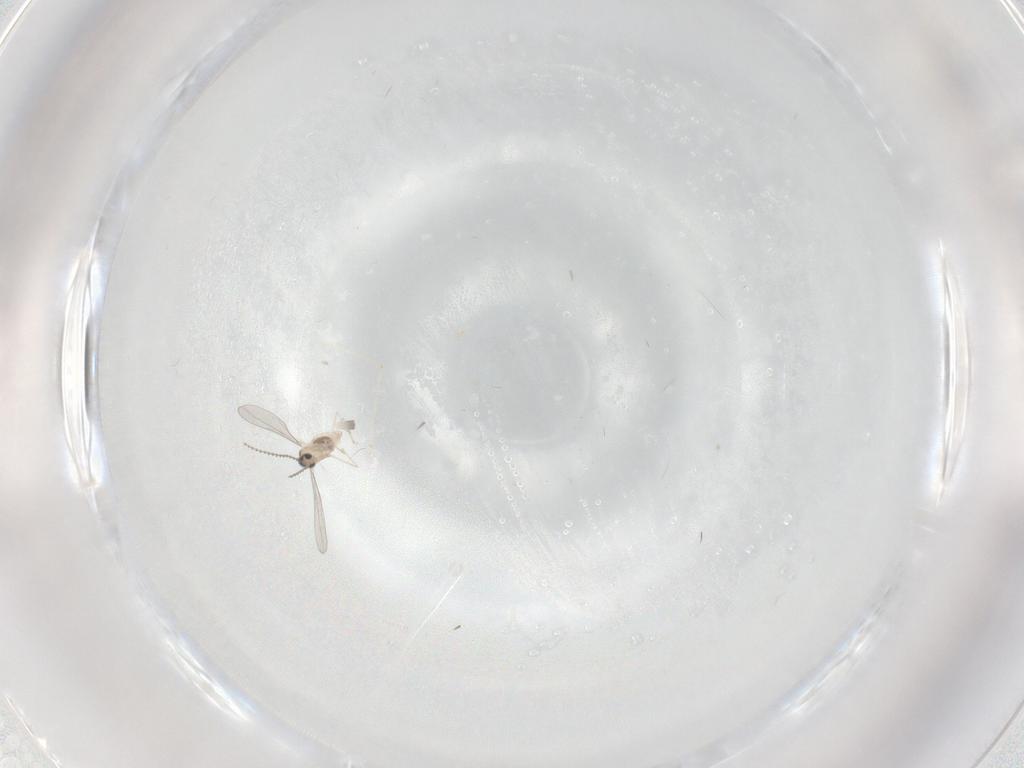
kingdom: Animalia
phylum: Arthropoda
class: Insecta
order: Diptera
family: Cecidomyiidae
